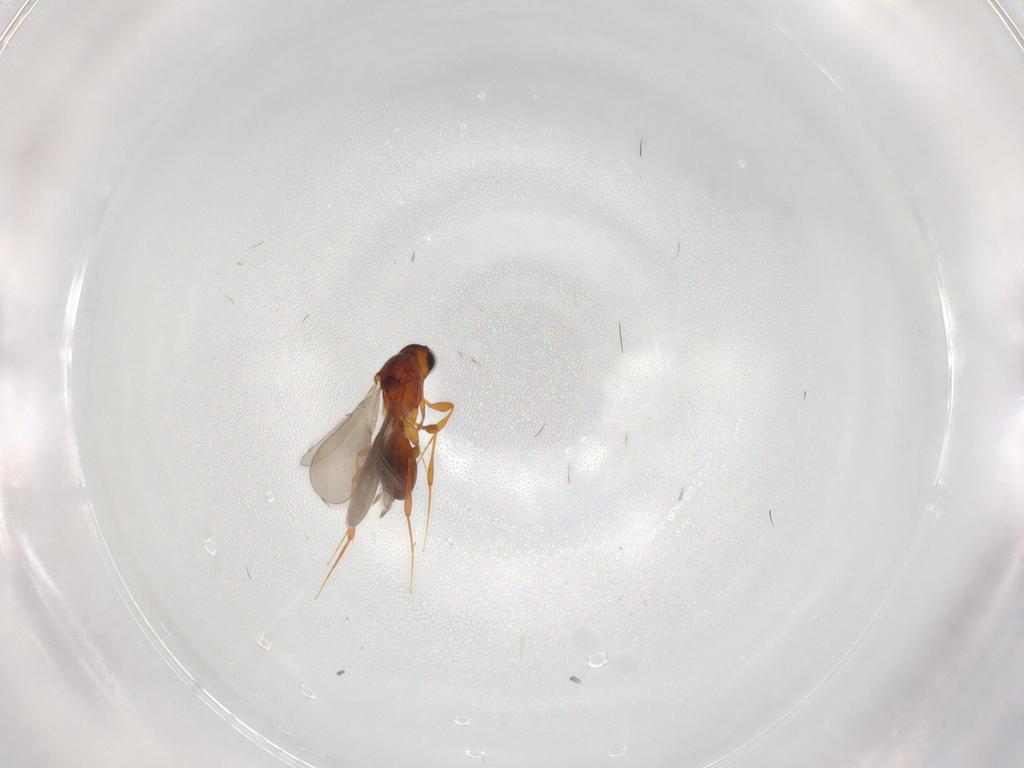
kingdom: Animalia
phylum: Arthropoda
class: Insecta
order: Hymenoptera
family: Platygastridae
